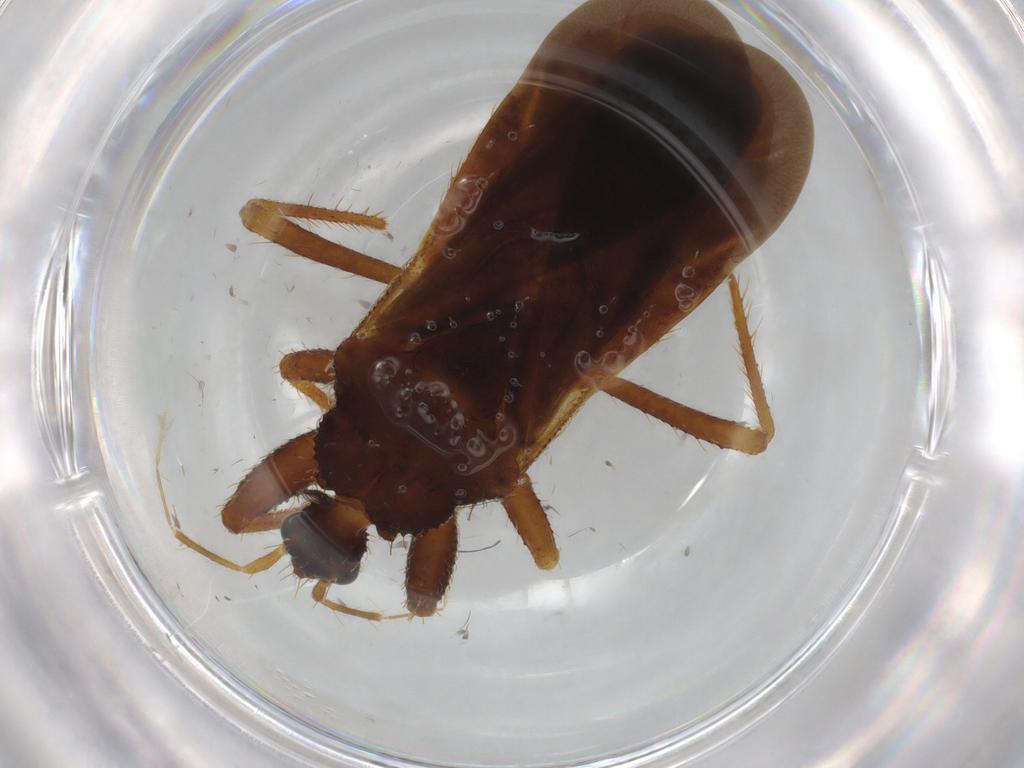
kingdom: Animalia
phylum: Arthropoda
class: Insecta
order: Hemiptera
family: Cicadellidae
